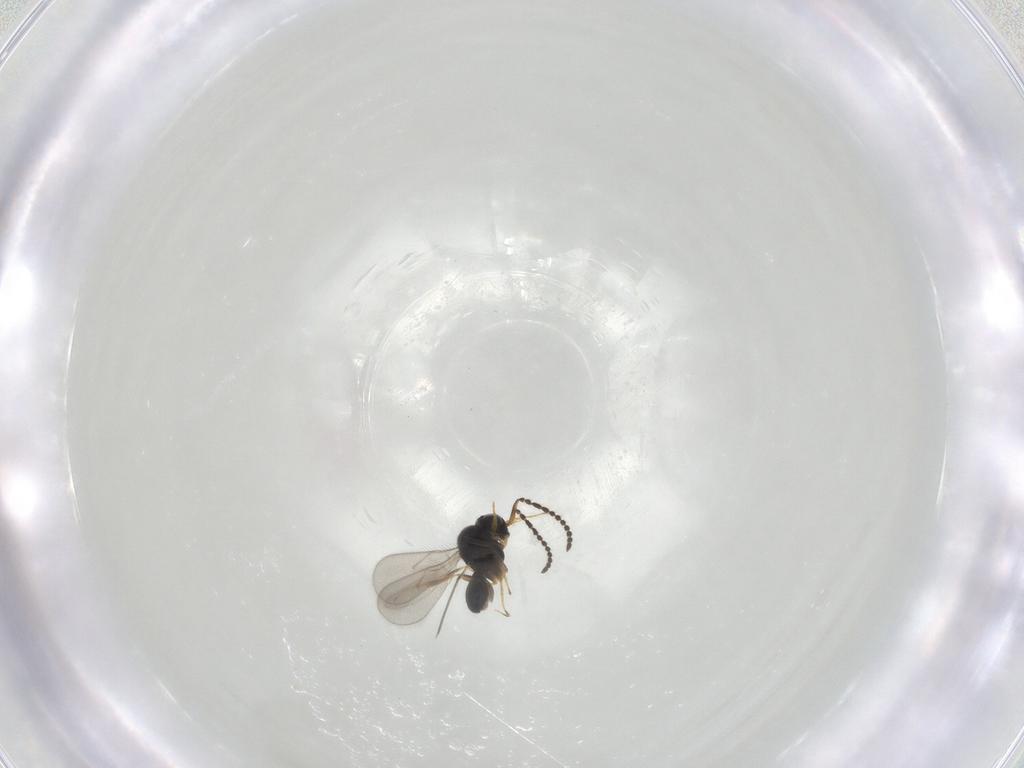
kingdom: Animalia
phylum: Arthropoda
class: Insecta
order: Hymenoptera
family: Scelionidae
